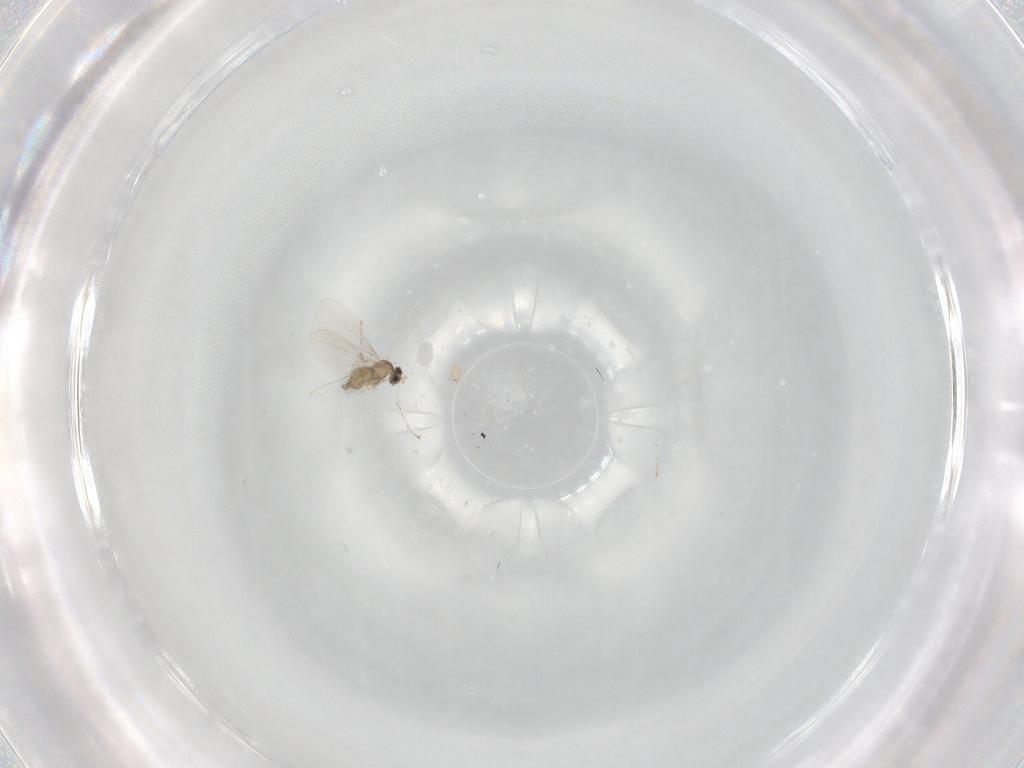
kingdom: Animalia
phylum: Arthropoda
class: Insecta
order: Diptera
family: Cecidomyiidae
